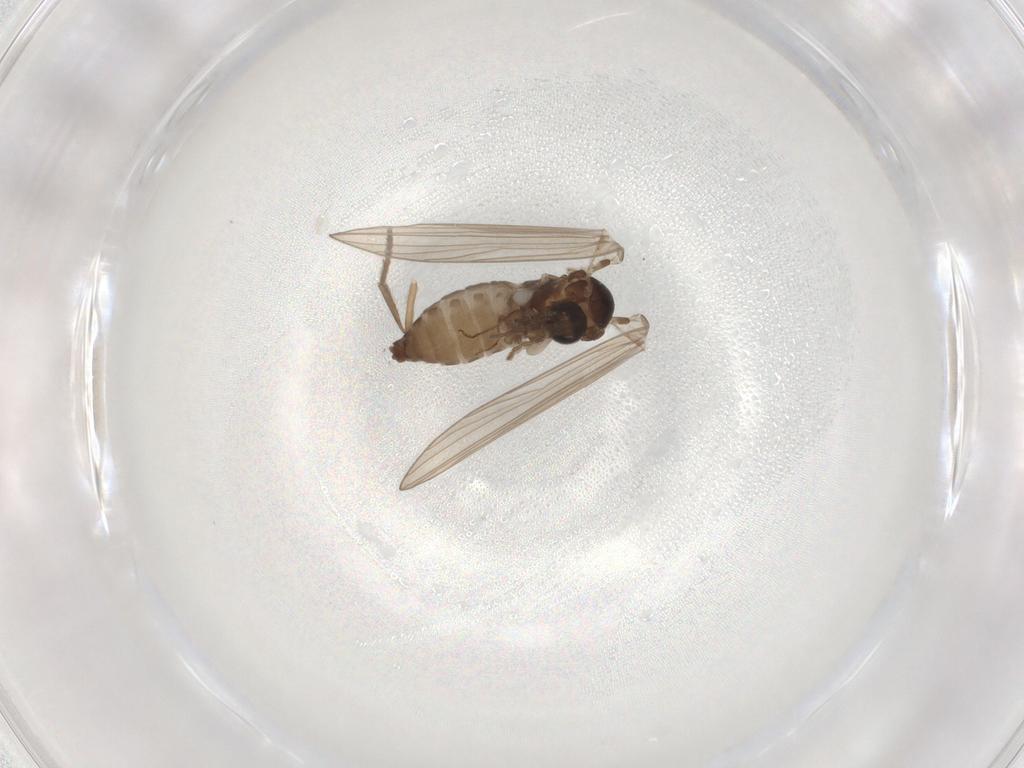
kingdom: Animalia
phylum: Arthropoda
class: Insecta
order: Diptera
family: Psychodidae
